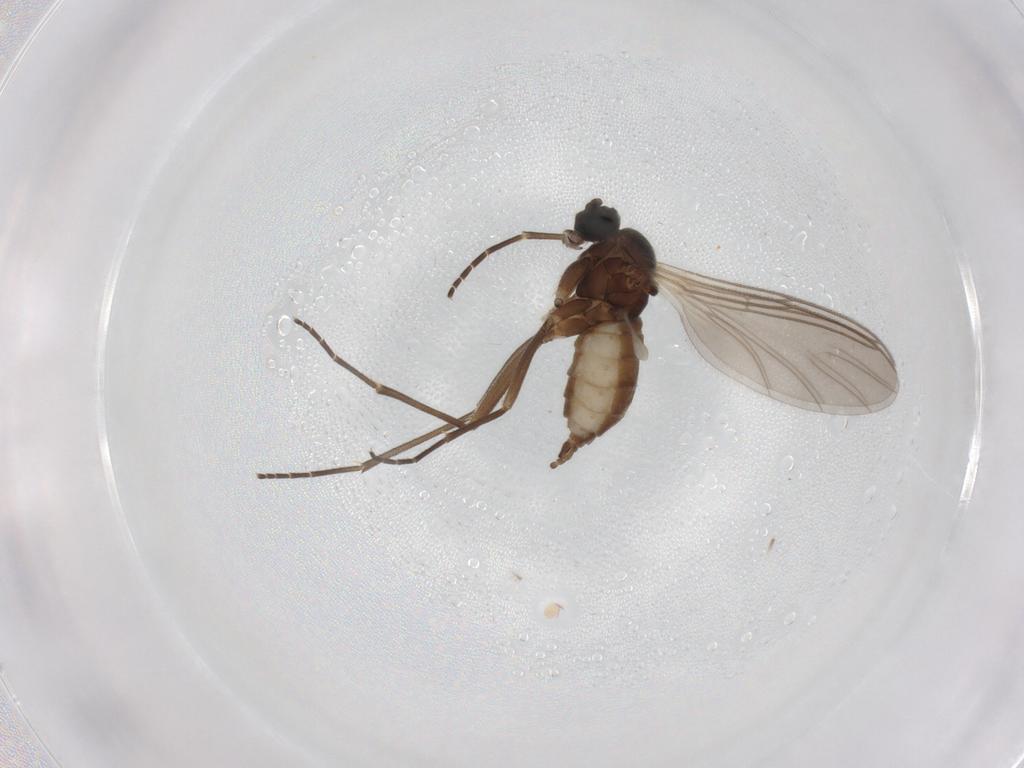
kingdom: Animalia
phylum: Arthropoda
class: Insecta
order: Diptera
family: Sciaridae
